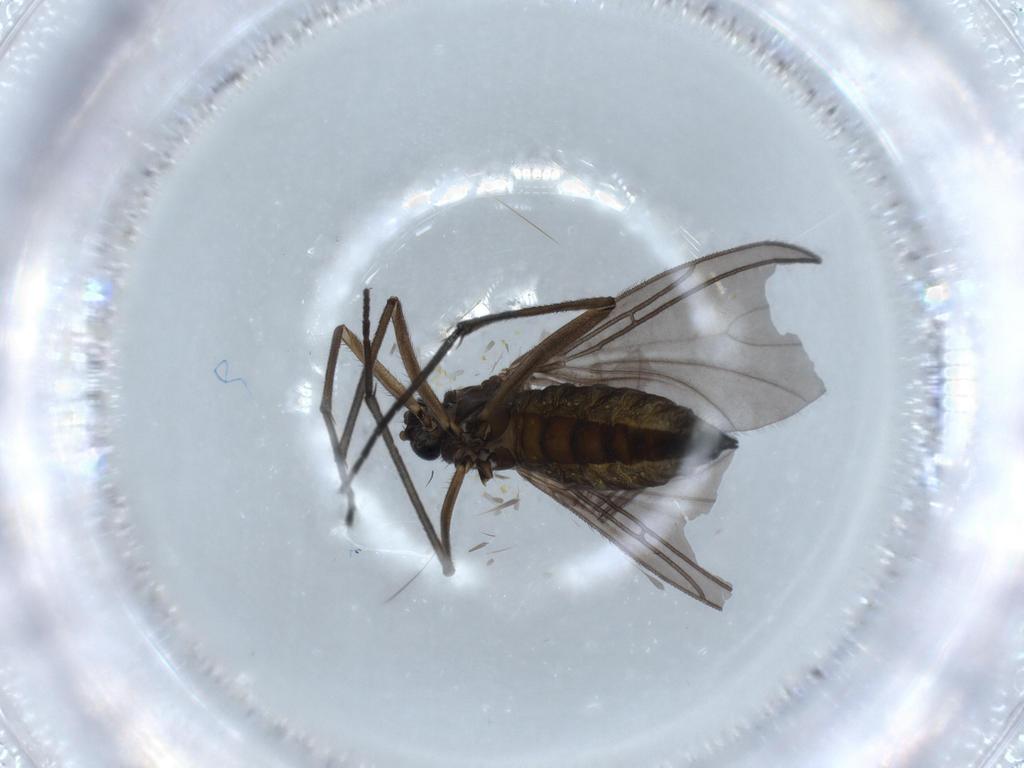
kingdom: Animalia
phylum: Arthropoda
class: Insecta
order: Diptera
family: Sciaridae
